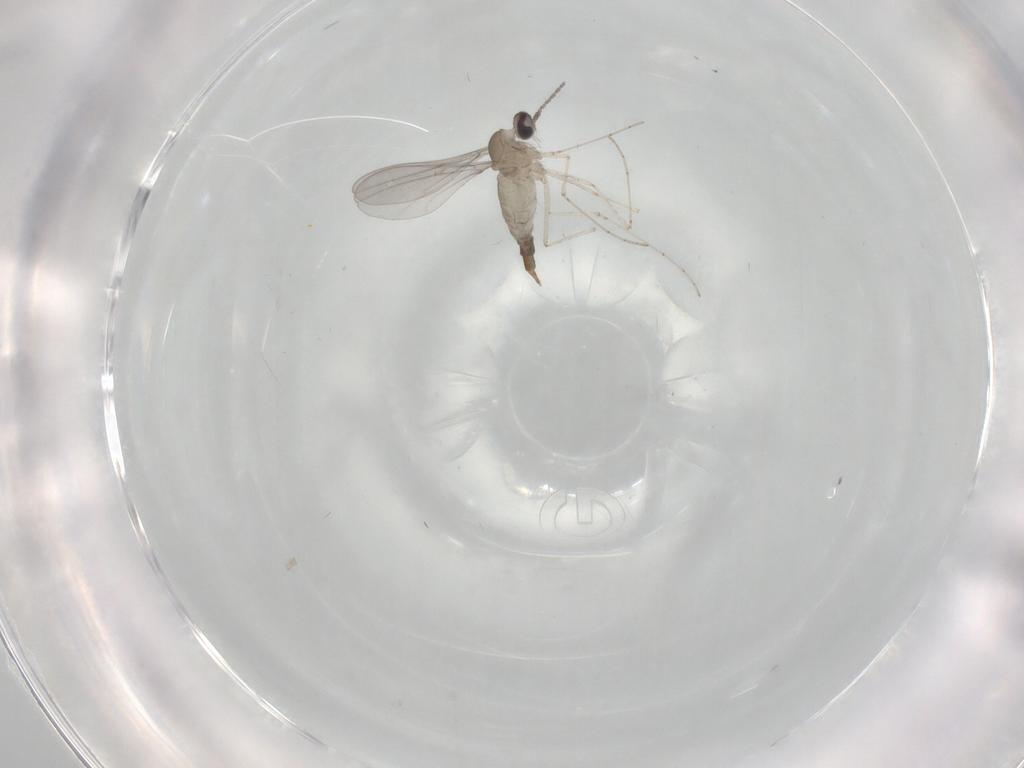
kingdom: Animalia
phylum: Arthropoda
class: Insecta
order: Diptera
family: Cecidomyiidae
